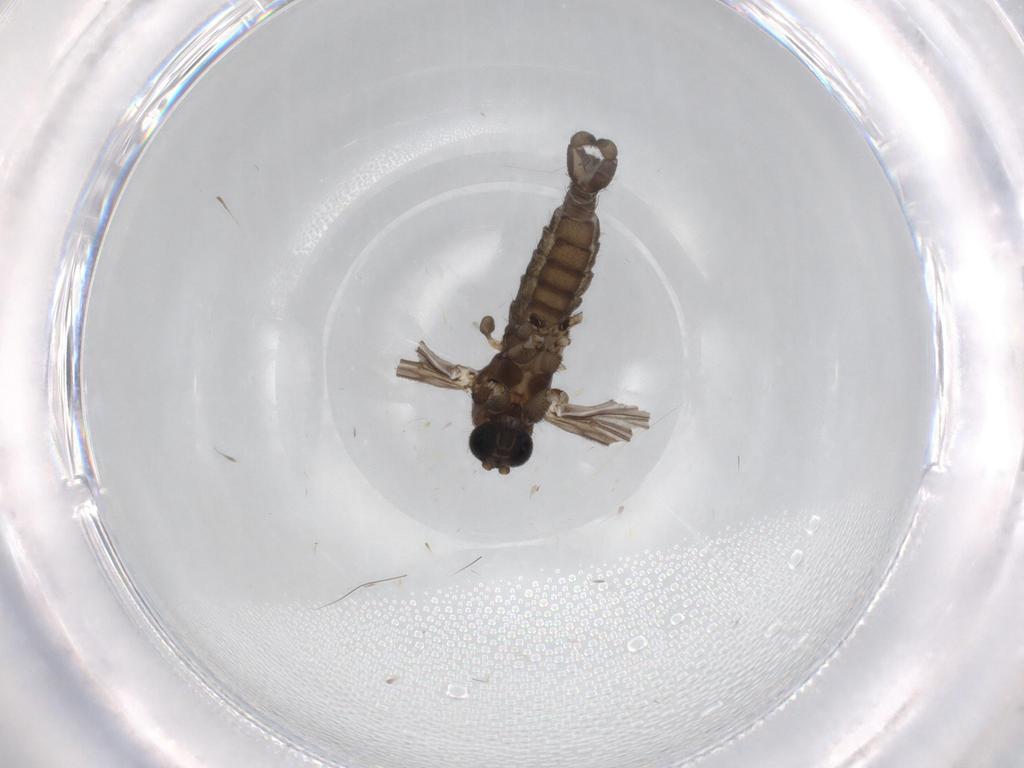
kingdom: Animalia
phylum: Arthropoda
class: Insecta
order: Diptera
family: Sciaridae
